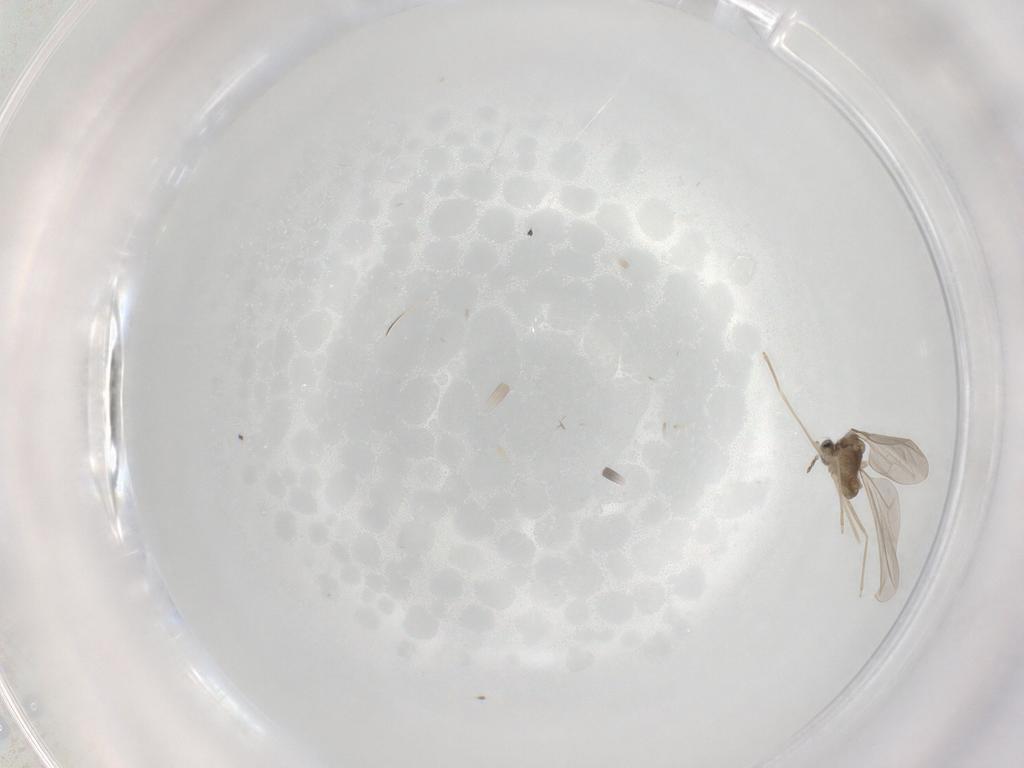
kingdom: Animalia
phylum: Arthropoda
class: Insecta
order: Diptera
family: Cecidomyiidae
